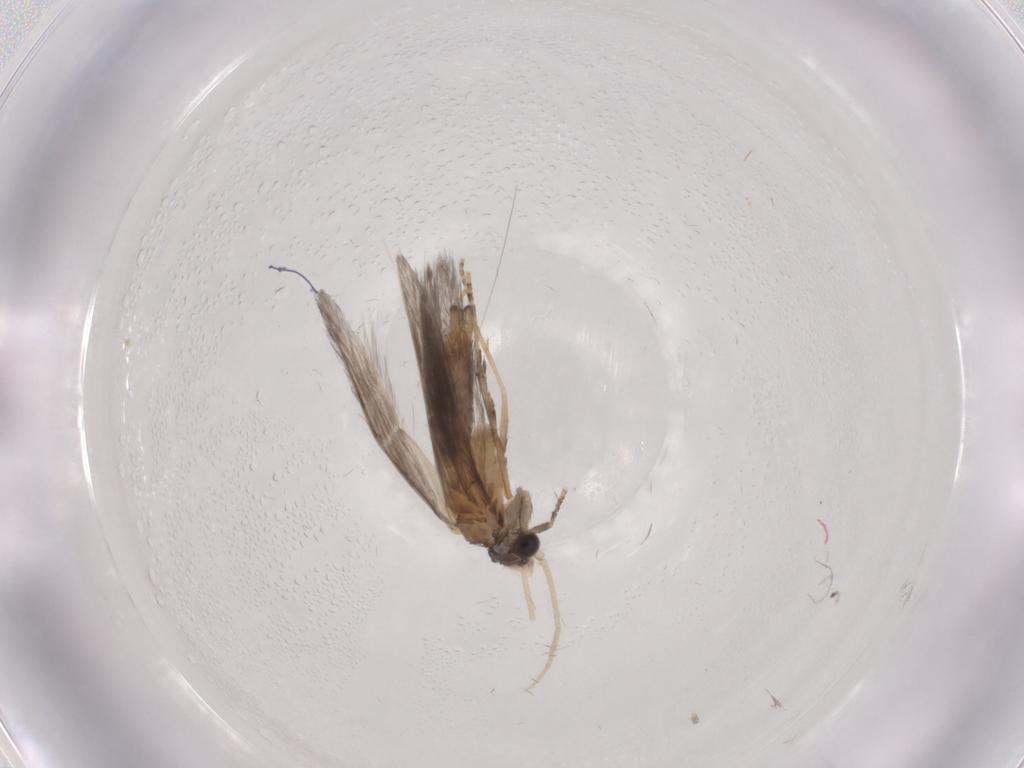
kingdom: Animalia
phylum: Arthropoda
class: Insecta
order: Trichoptera
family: Hydroptilidae
